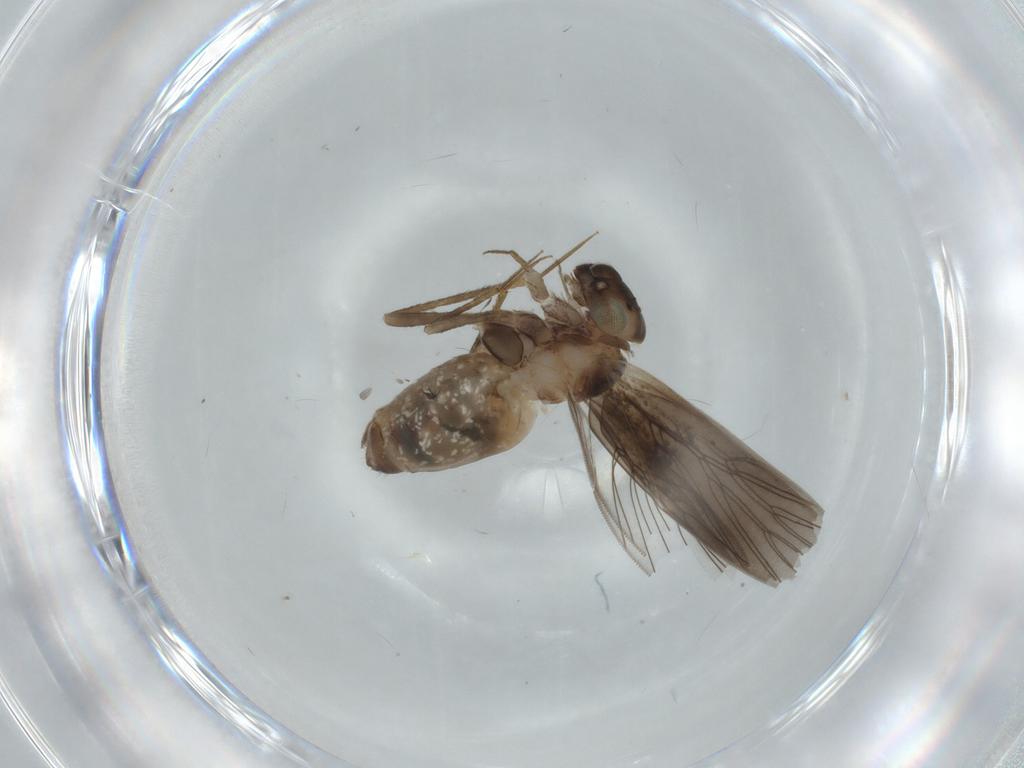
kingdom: Animalia
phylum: Arthropoda
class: Insecta
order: Psocodea
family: Lepidopsocidae
